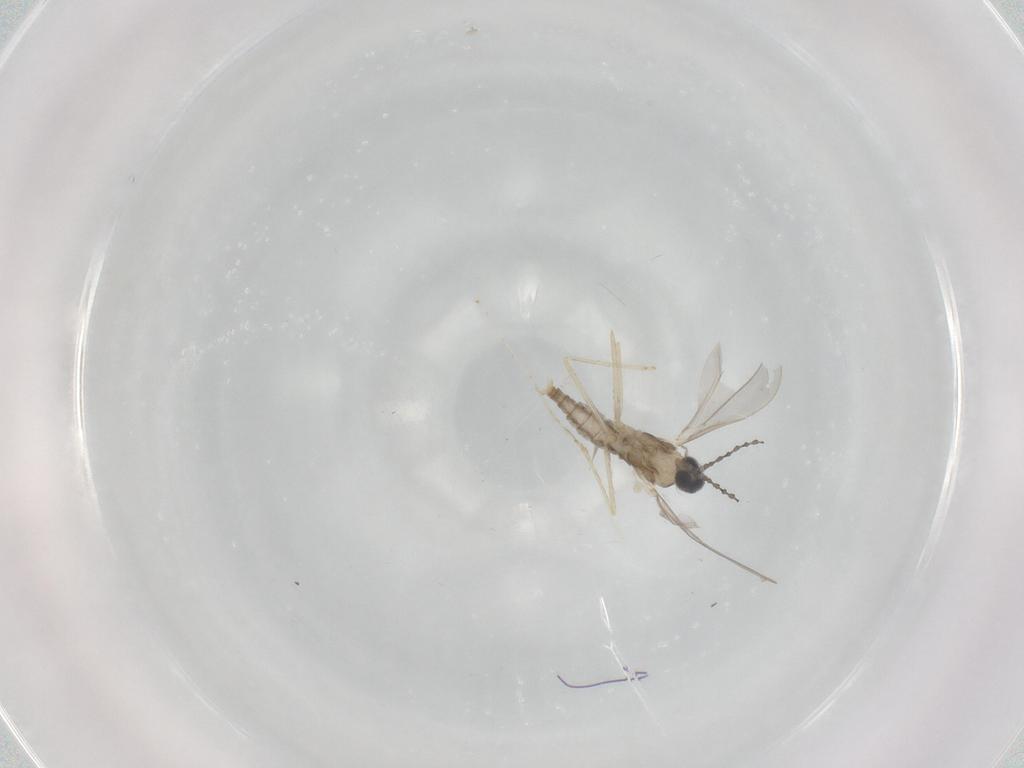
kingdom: Animalia
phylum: Arthropoda
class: Insecta
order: Diptera
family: Cecidomyiidae
